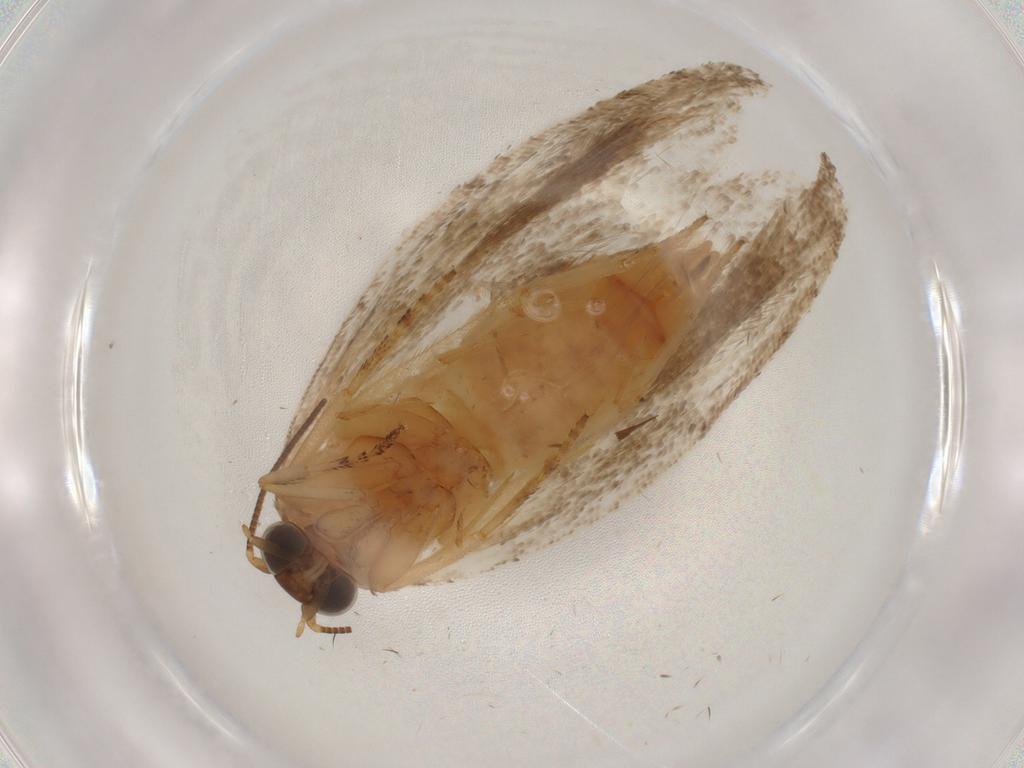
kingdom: Animalia
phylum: Arthropoda
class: Insecta
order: Lepidoptera
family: Tortricidae
